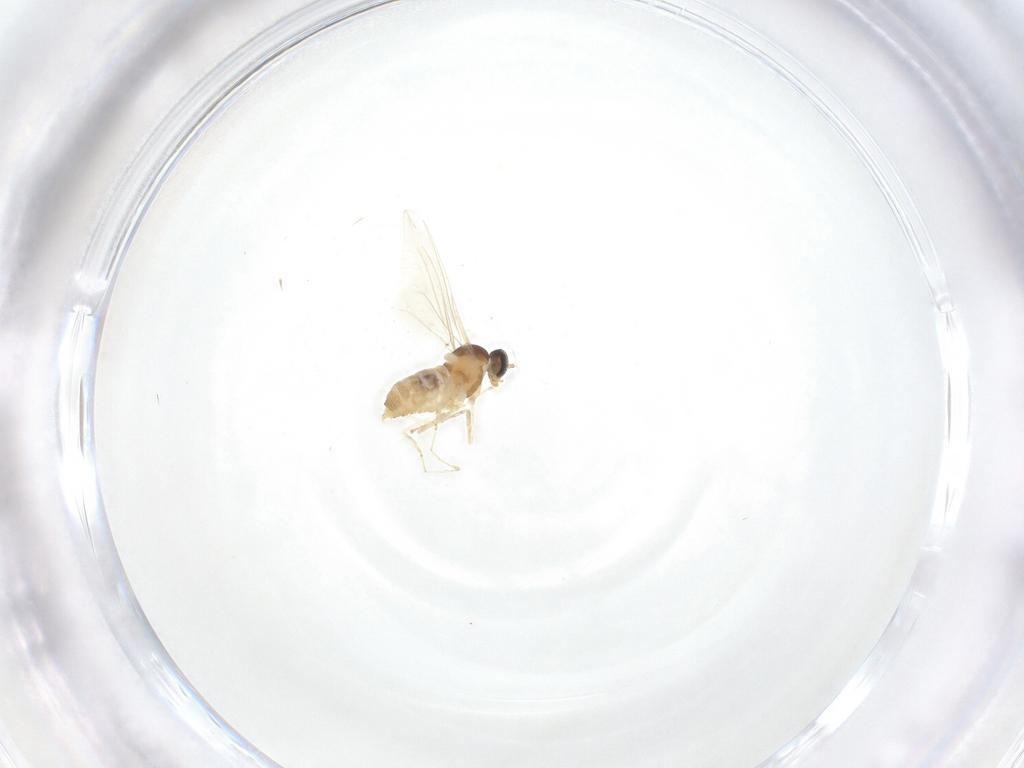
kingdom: Animalia
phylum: Arthropoda
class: Insecta
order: Diptera
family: Cecidomyiidae
